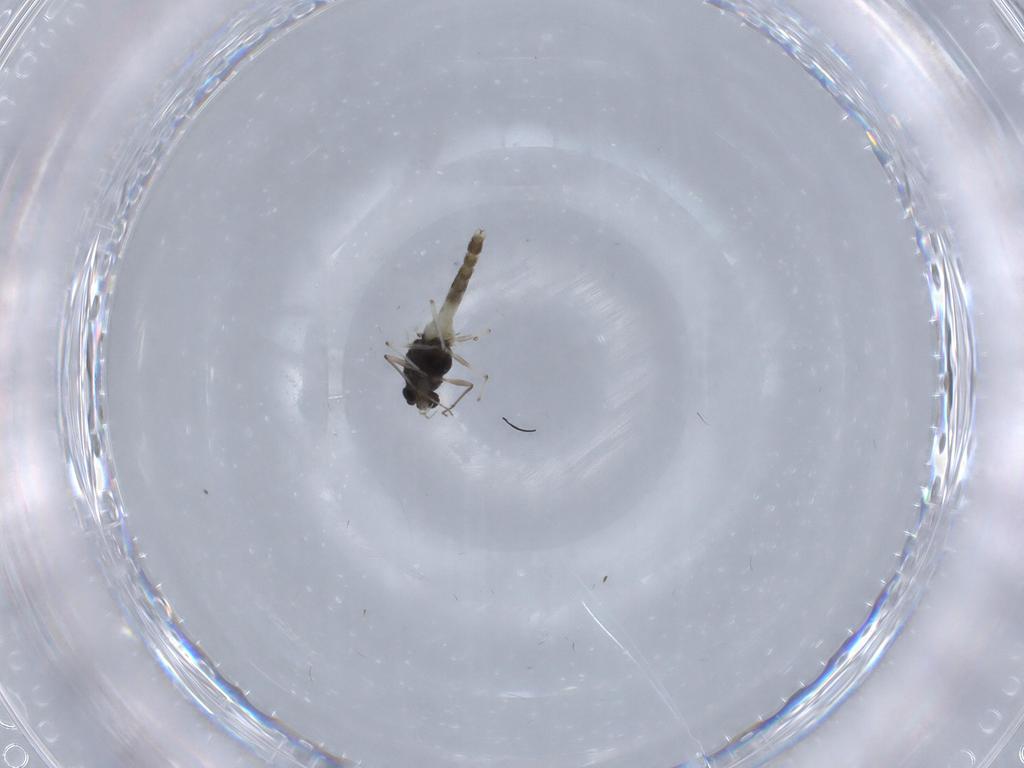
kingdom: Animalia
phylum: Arthropoda
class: Insecta
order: Diptera
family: Chironomidae
